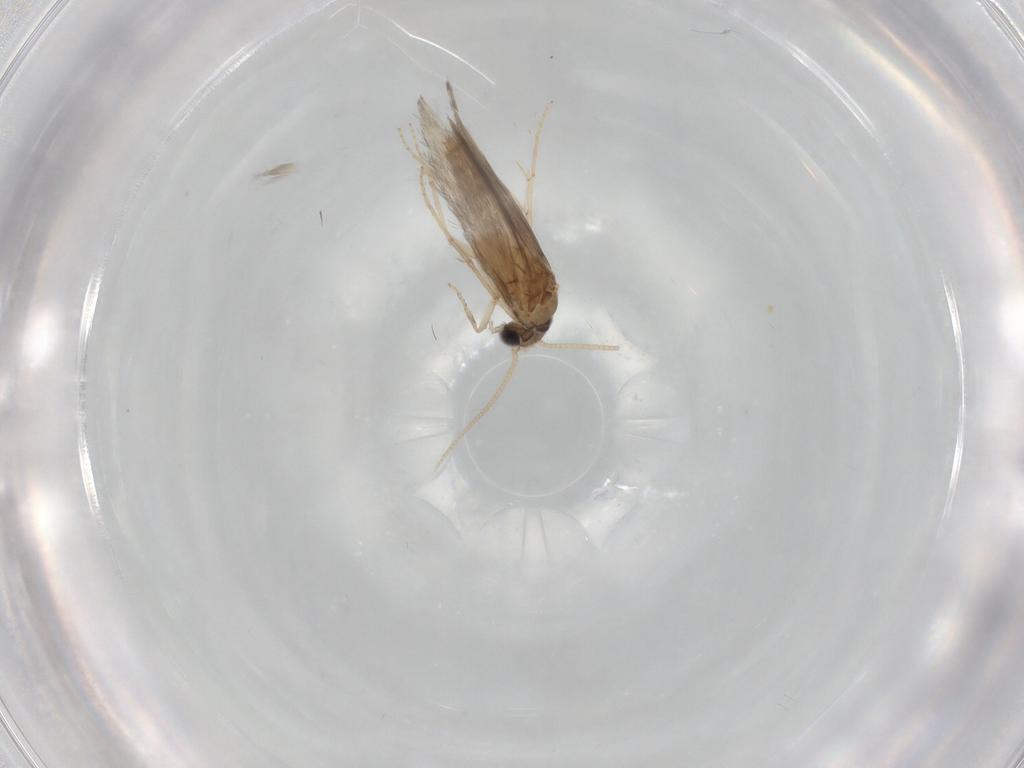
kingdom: Animalia
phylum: Arthropoda
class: Insecta
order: Trichoptera
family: Hydroptilidae
